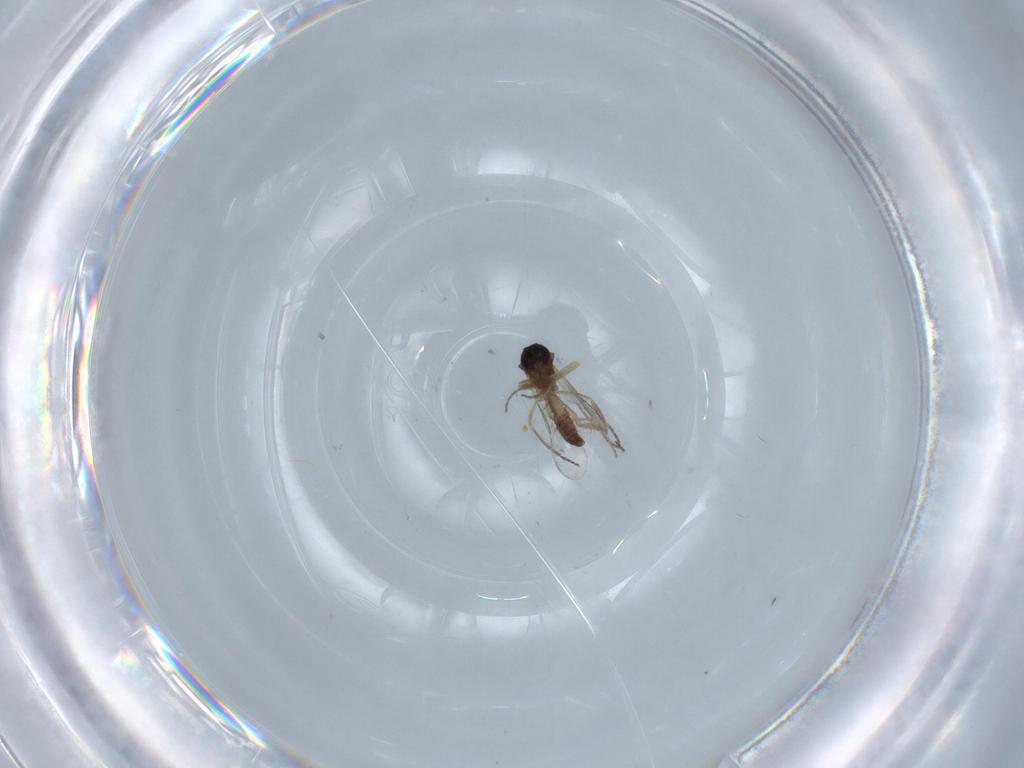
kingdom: Animalia
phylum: Arthropoda
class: Insecta
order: Diptera
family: Ceratopogonidae
